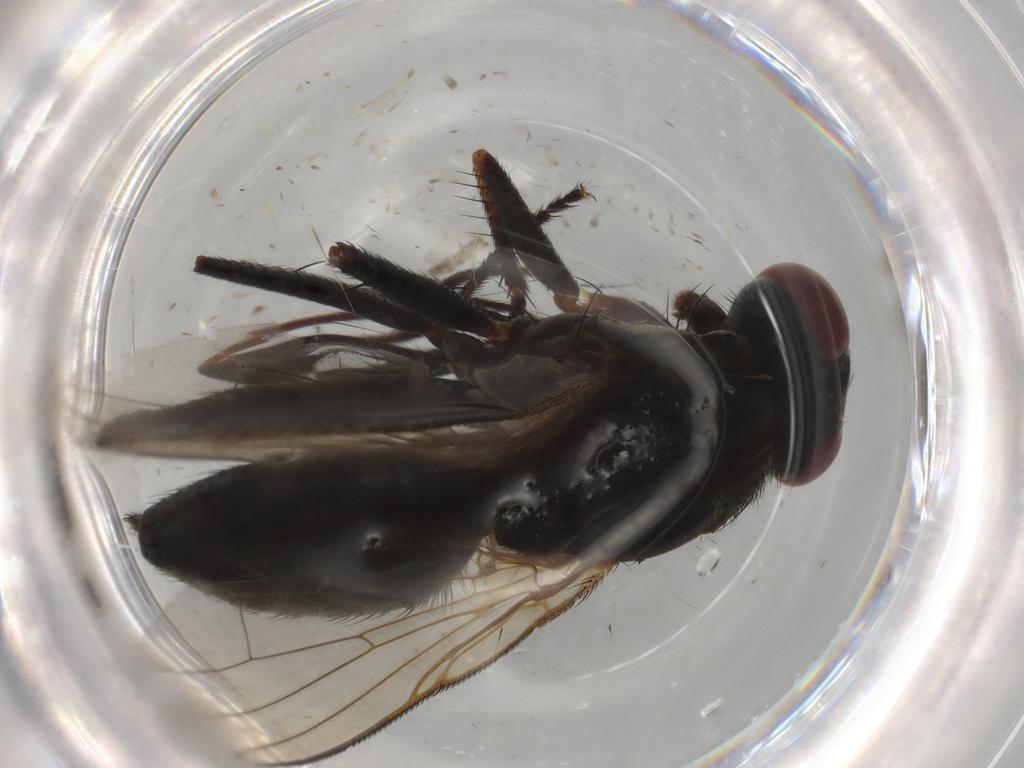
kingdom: Animalia
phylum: Arthropoda
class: Insecta
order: Diptera
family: Muscidae
